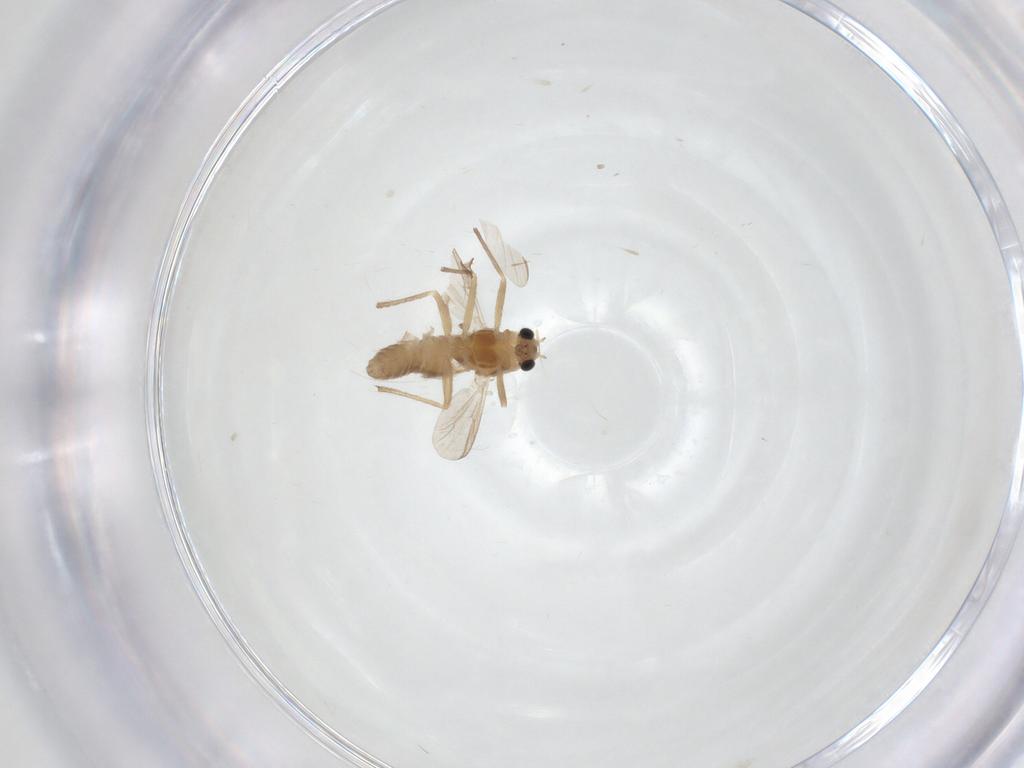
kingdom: Animalia
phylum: Arthropoda
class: Insecta
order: Diptera
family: Chironomidae
